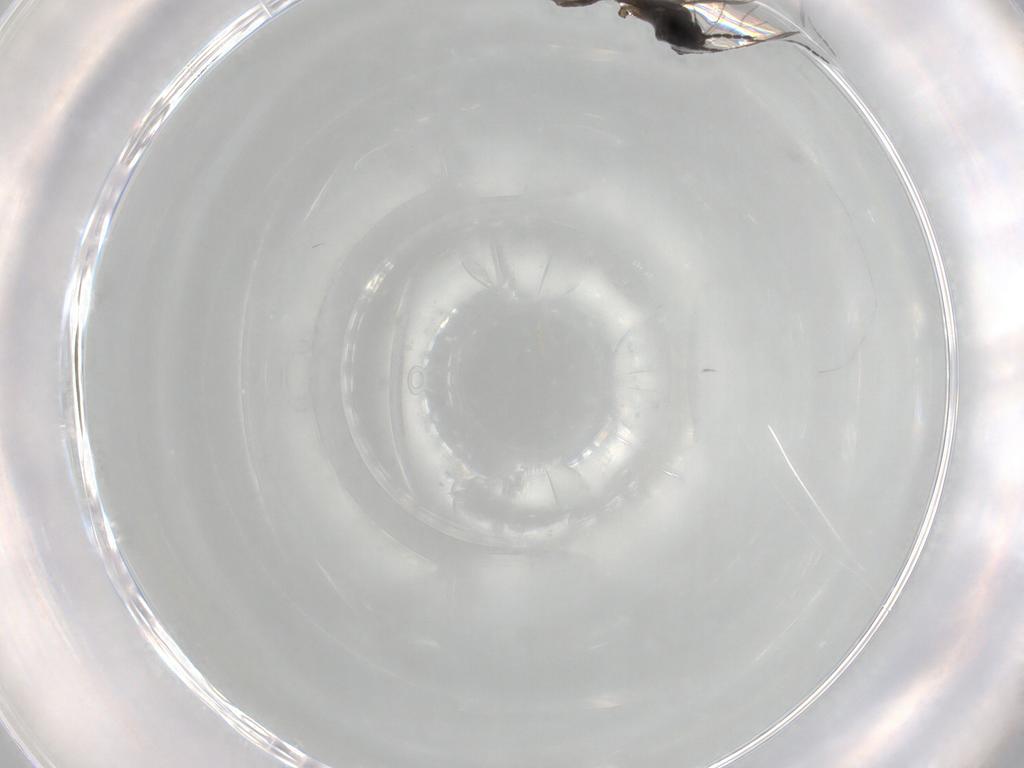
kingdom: Animalia
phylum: Arthropoda
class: Insecta
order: Diptera
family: Sciaridae
